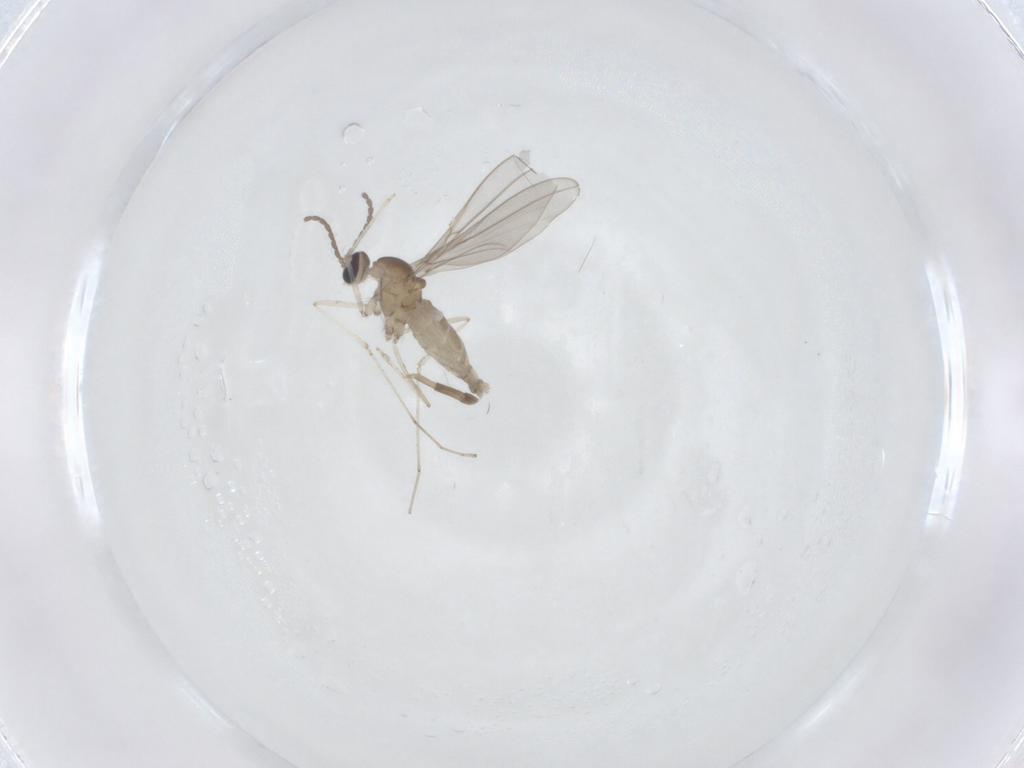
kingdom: Animalia
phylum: Arthropoda
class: Insecta
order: Diptera
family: Cecidomyiidae
